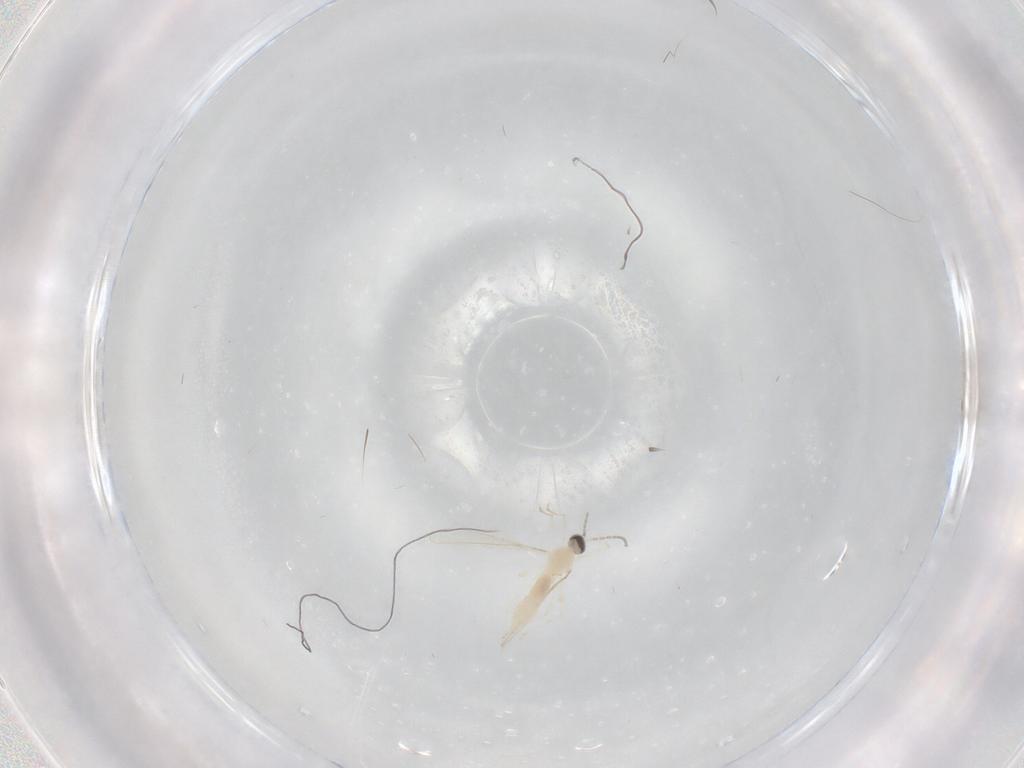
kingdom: Animalia
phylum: Arthropoda
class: Insecta
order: Diptera
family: Cecidomyiidae
